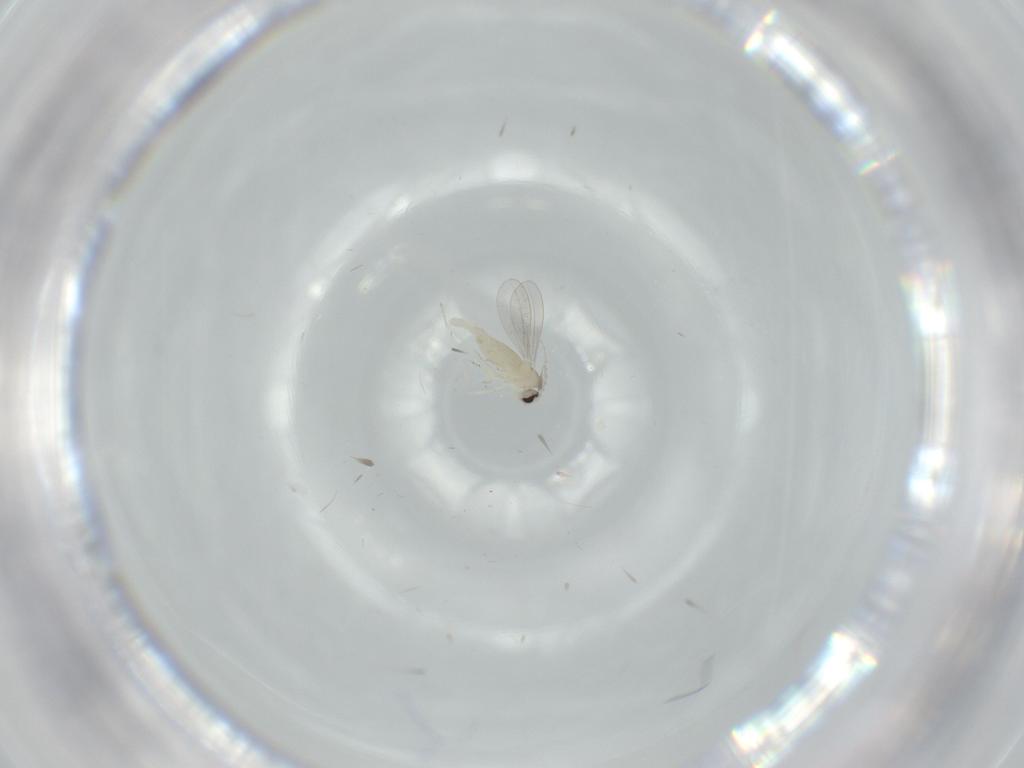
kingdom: Animalia
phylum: Arthropoda
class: Insecta
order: Diptera
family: Cecidomyiidae
